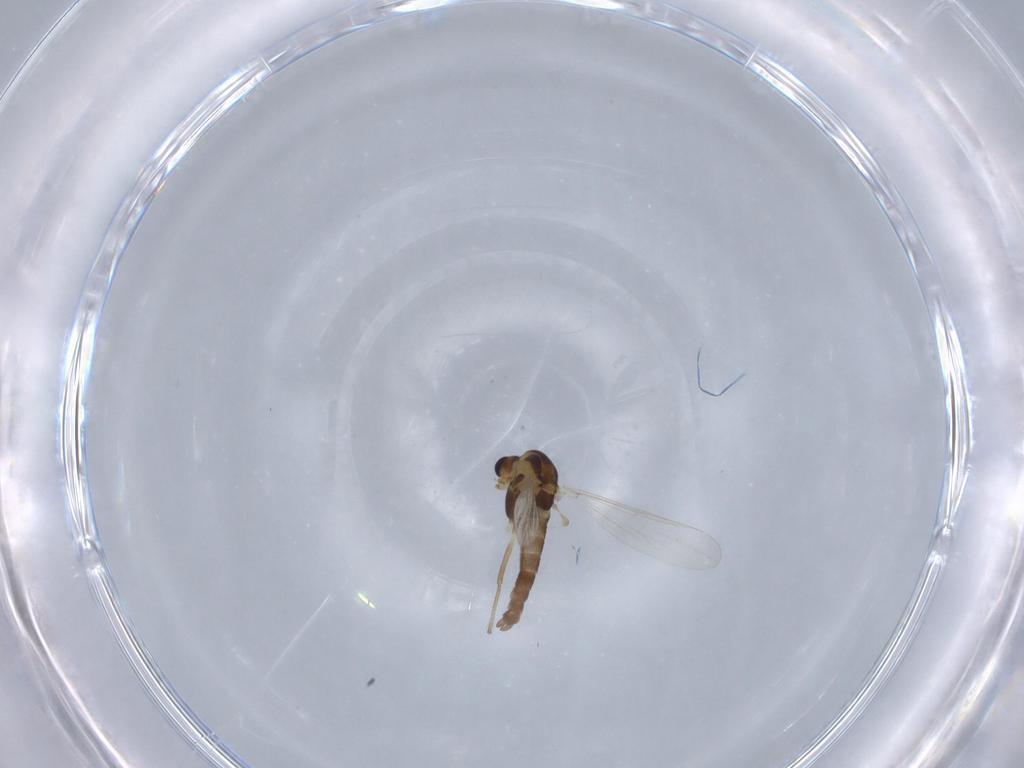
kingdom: Animalia
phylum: Arthropoda
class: Insecta
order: Diptera
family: Chironomidae
